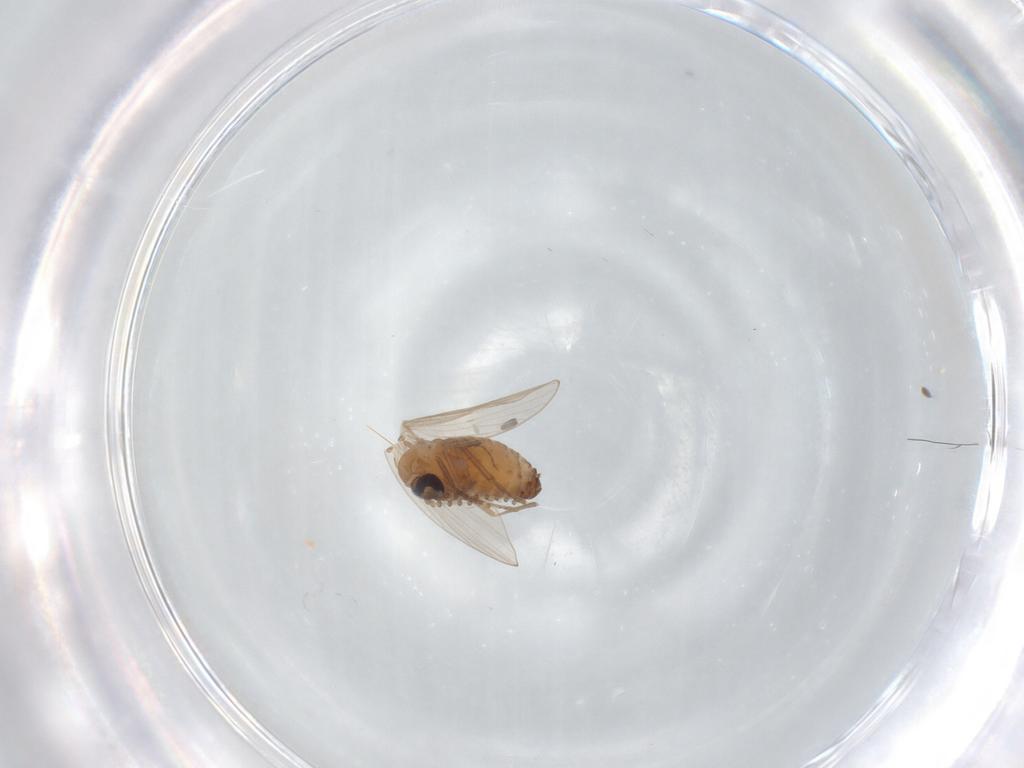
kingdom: Animalia
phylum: Arthropoda
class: Insecta
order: Diptera
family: Psychodidae
